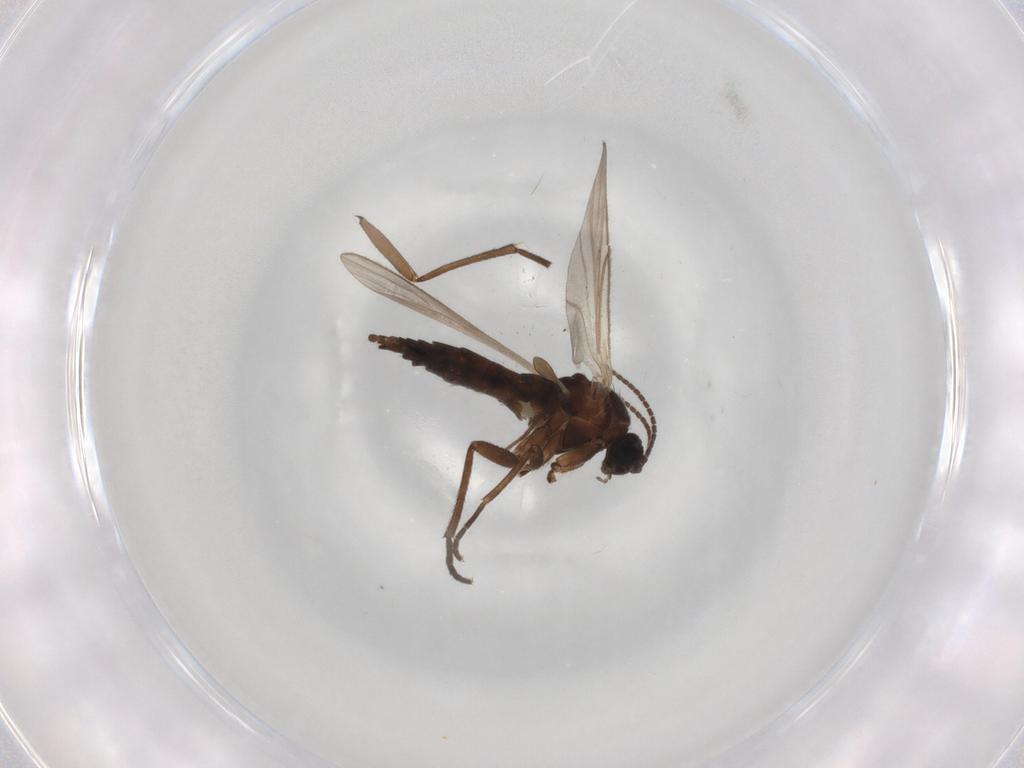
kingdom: Animalia
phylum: Arthropoda
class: Insecta
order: Diptera
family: Sciaridae
